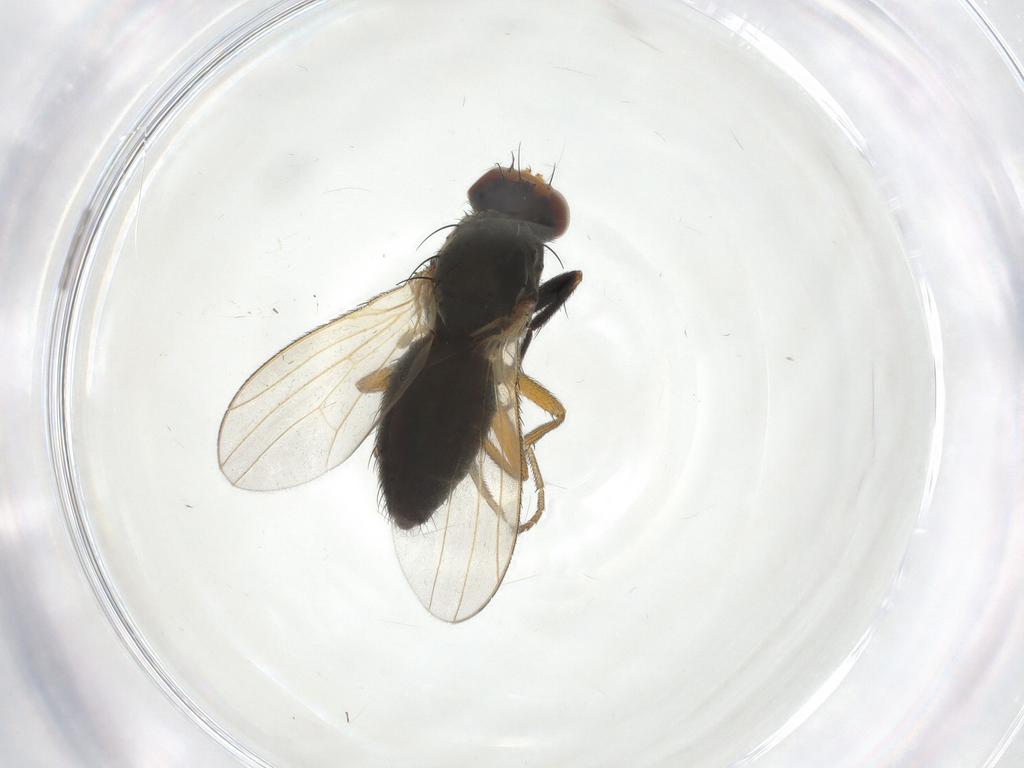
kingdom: Animalia
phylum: Arthropoda
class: Insecta
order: Diptera
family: Heleomyzidae
